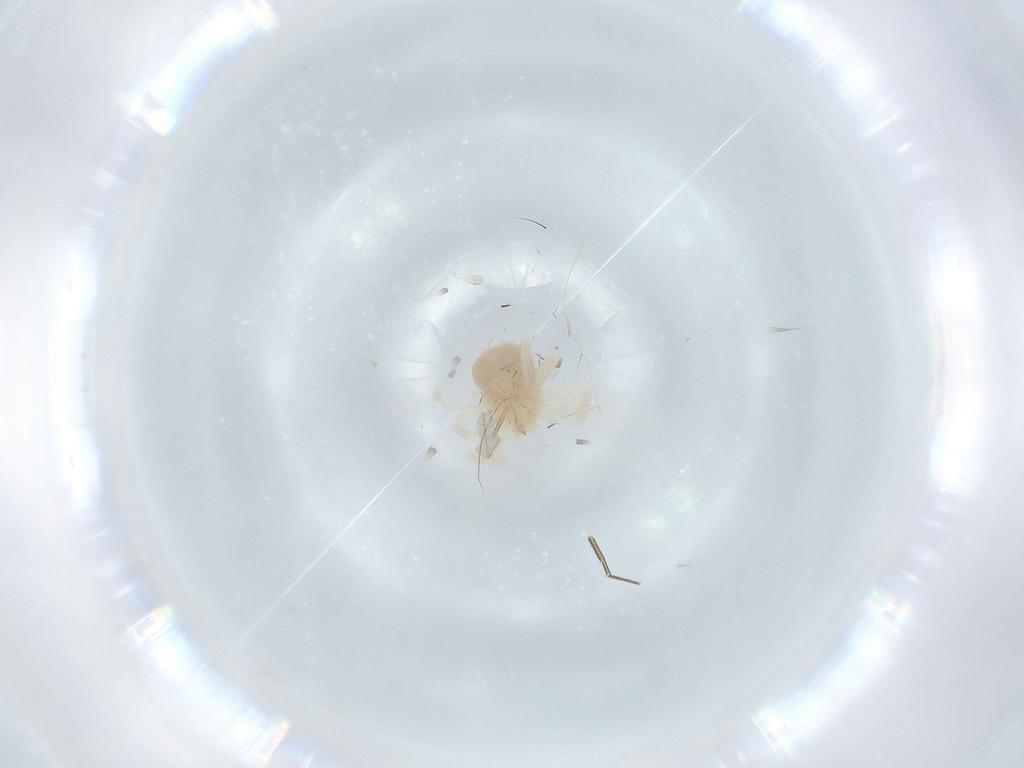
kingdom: Animalia
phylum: Arthropoda
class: Arachnida
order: Trombidiformes
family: Anystidae
